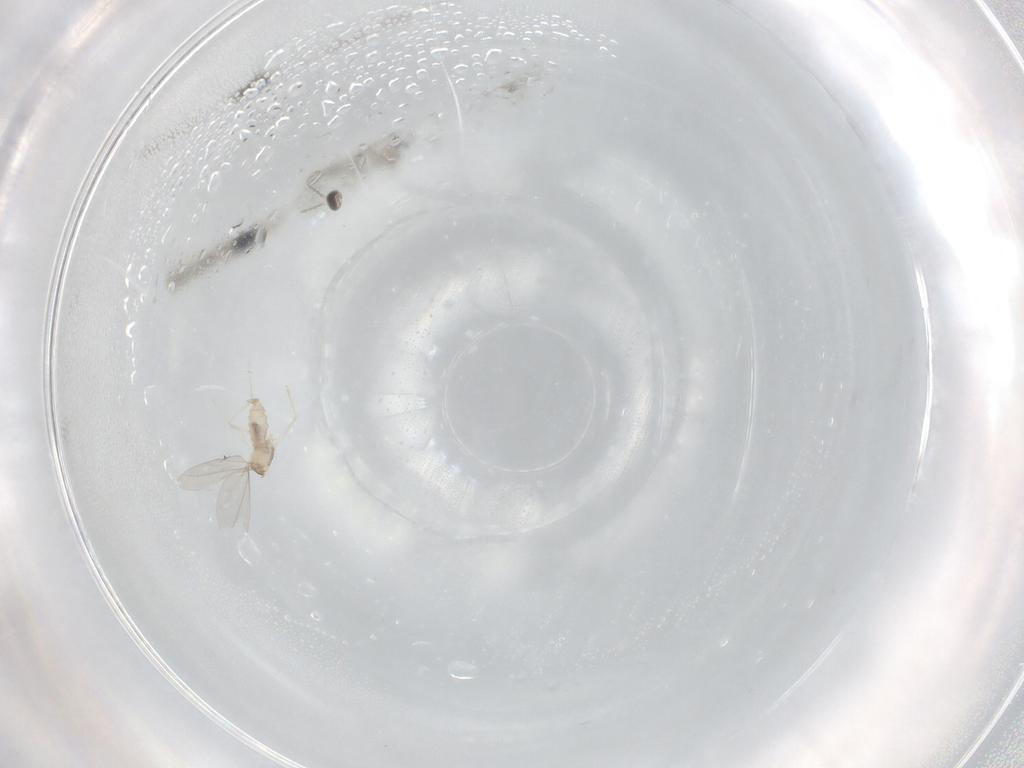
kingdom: Animalia
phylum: Arthropoda
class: Insecta
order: Diptera
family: Cecidomyiidae
